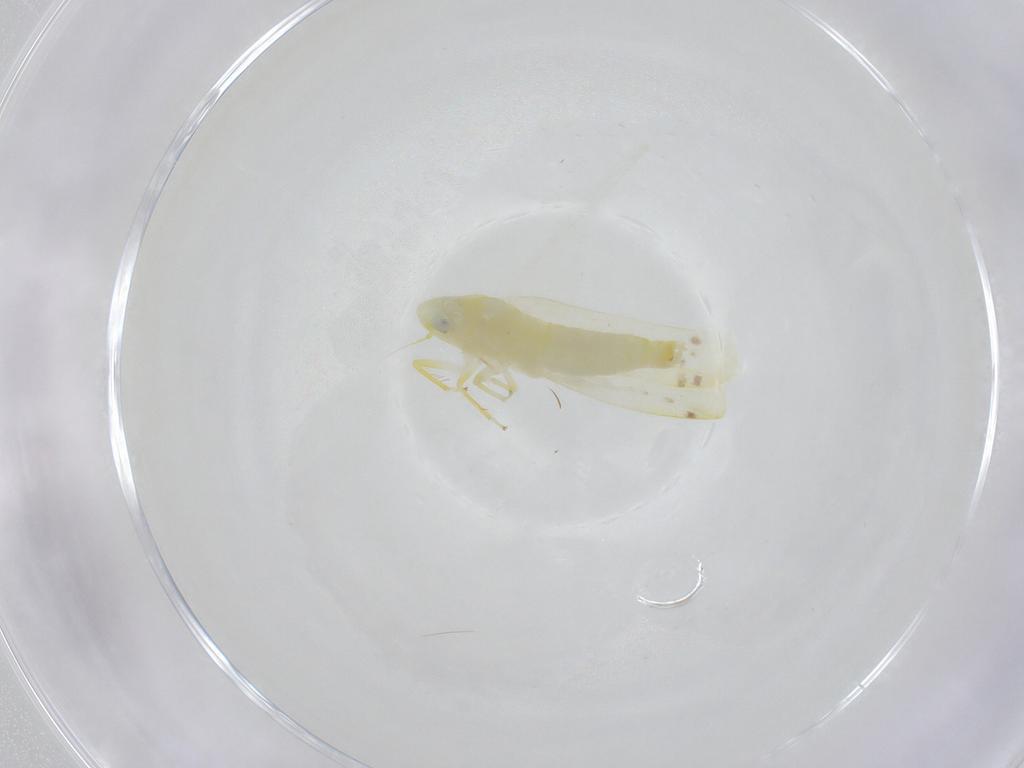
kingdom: Animalia
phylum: Arthropoda
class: Insecta
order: Hemiptera
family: Cicadellidae
